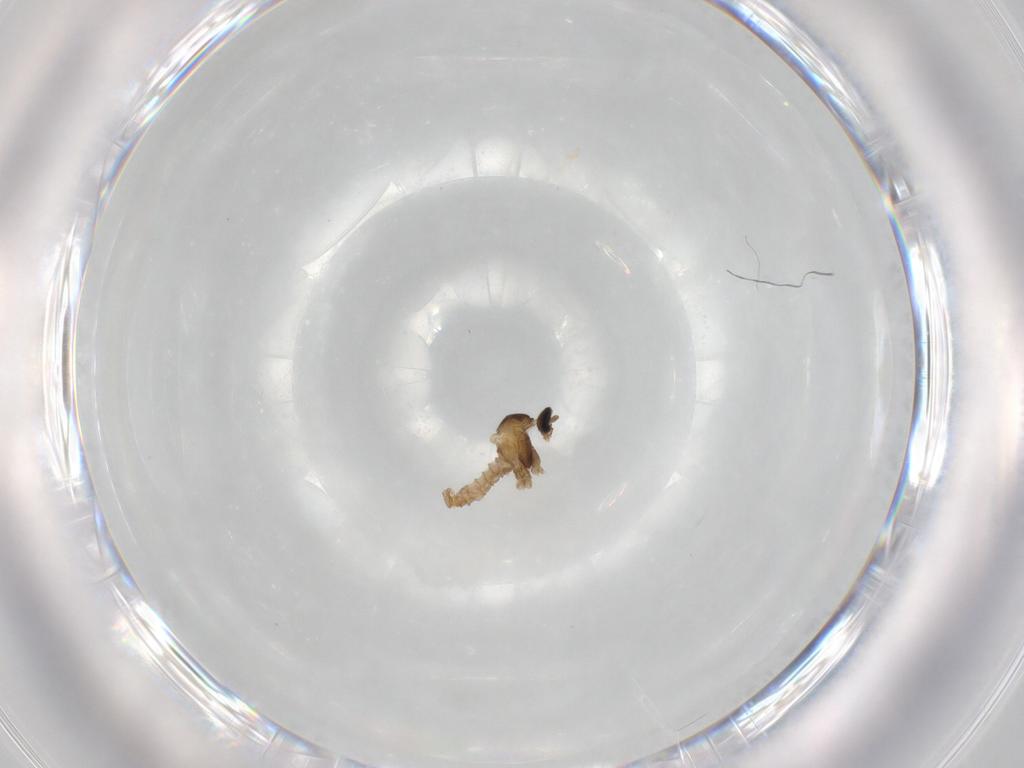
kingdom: Animalia
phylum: Arthropoda
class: Insecta
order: Diptera
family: Cecidomyiidae
